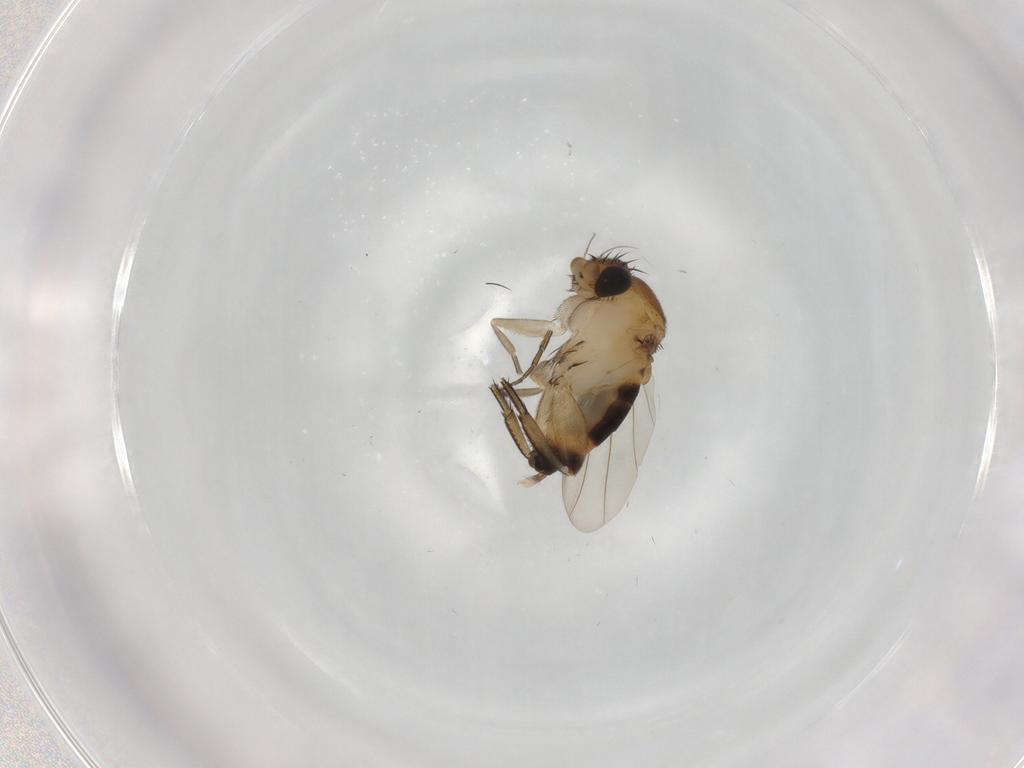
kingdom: Animalia
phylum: Arthropoda
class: Insecta
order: Diptera
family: Phoridae
